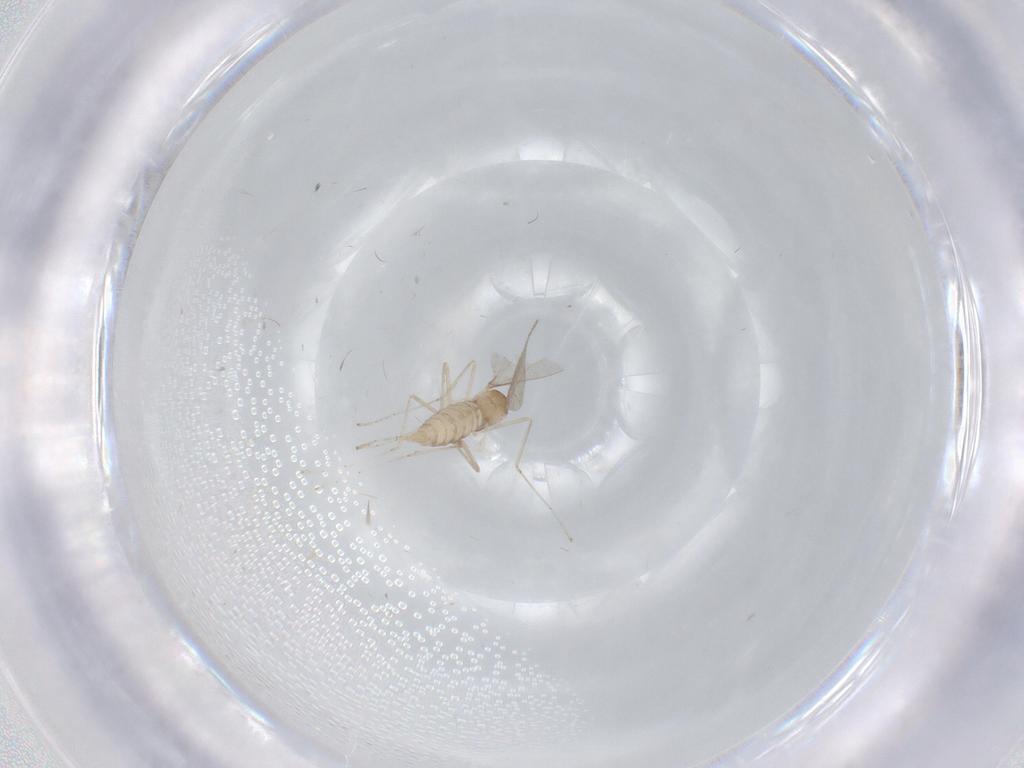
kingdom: Animalia
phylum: Arthropoda
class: Insecta
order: Diptera
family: Cecidomyiidae
